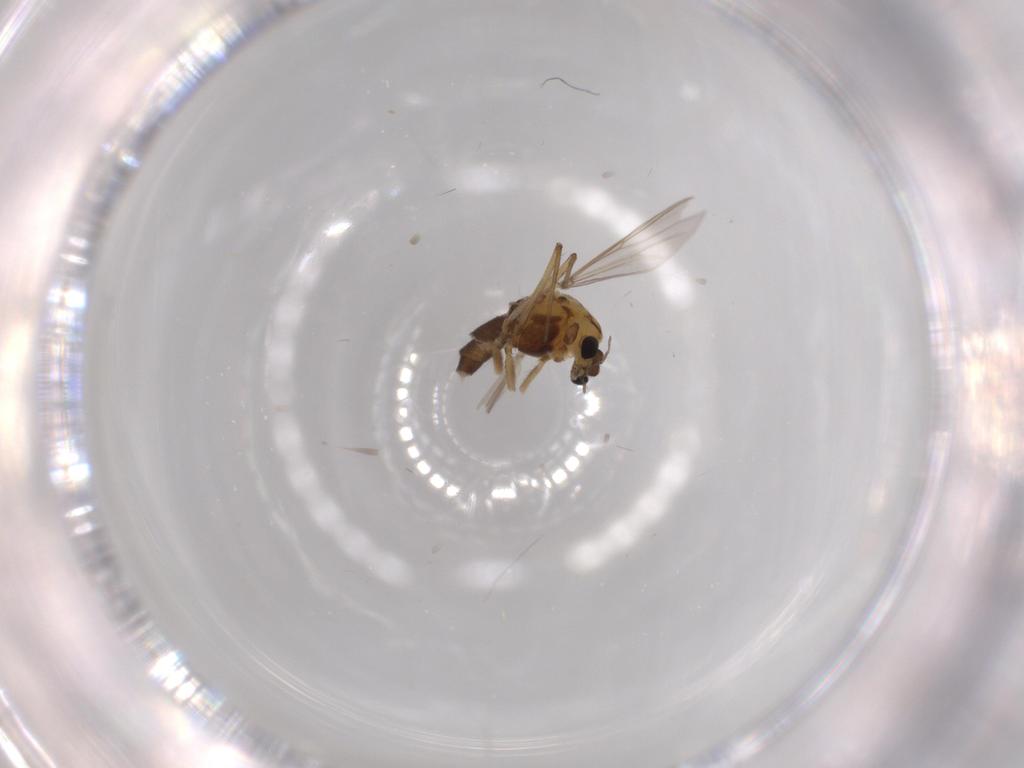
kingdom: Animalia
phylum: Arthropoda
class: Insecta
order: Diptera
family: Chironomidae
